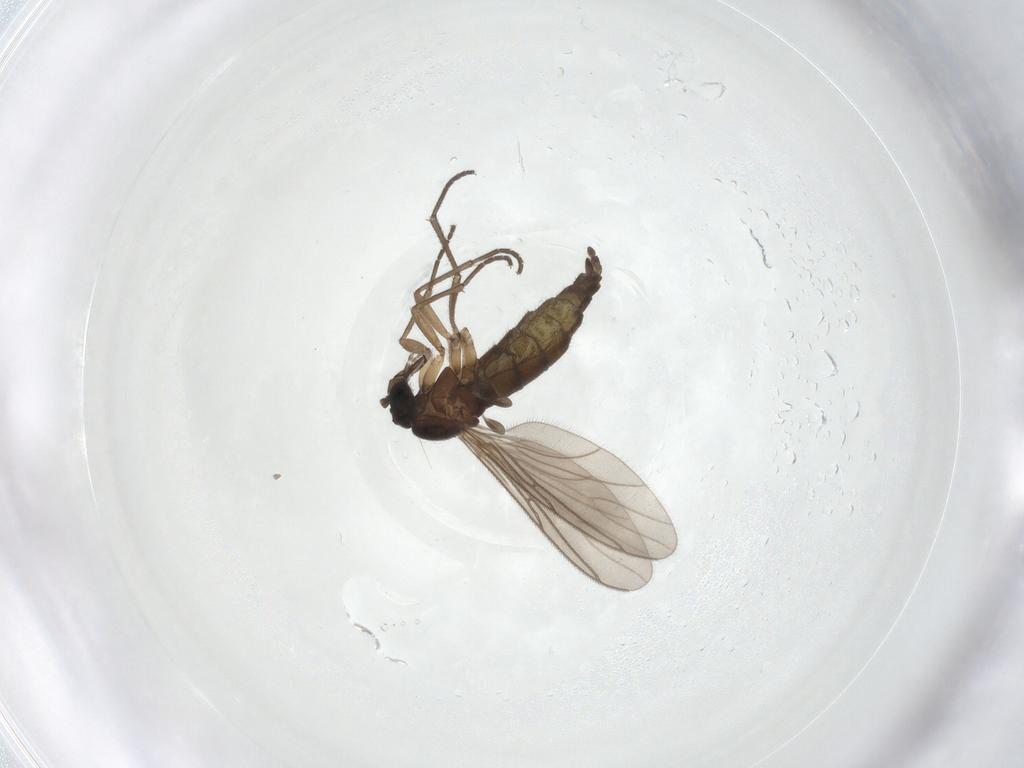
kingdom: Animalia
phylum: Arthropoda
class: Insecta
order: Diptera
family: Sciaridae
